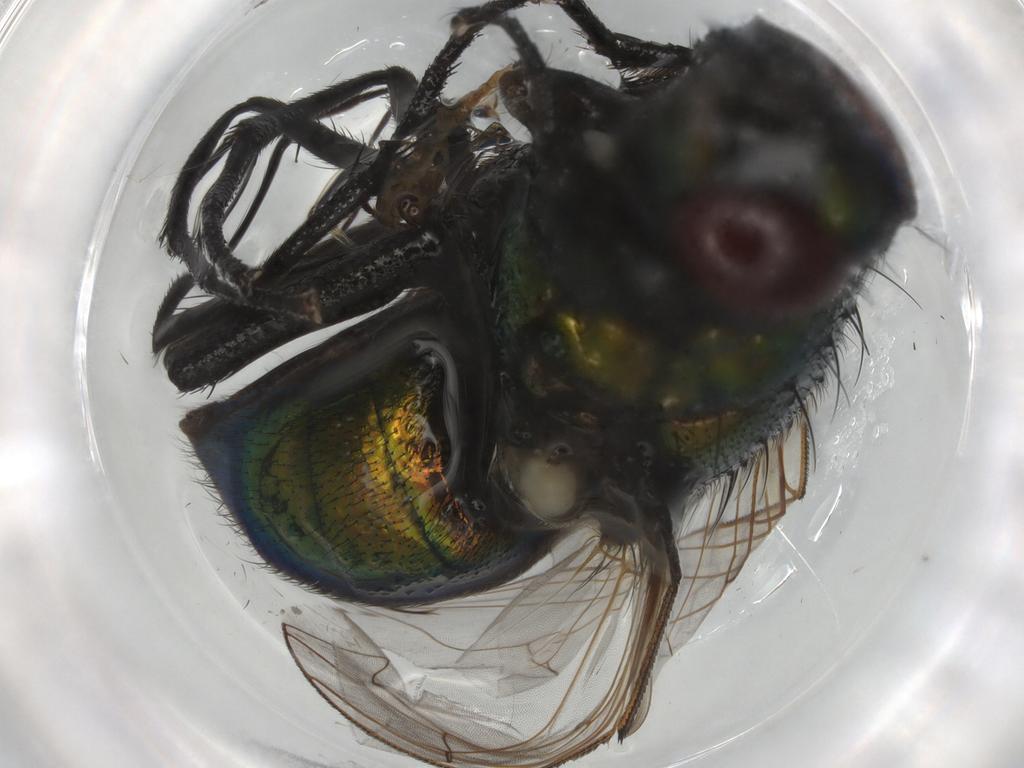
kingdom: Animalia
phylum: Arthropoda
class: Insecta
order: Diptera
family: Muscidae
